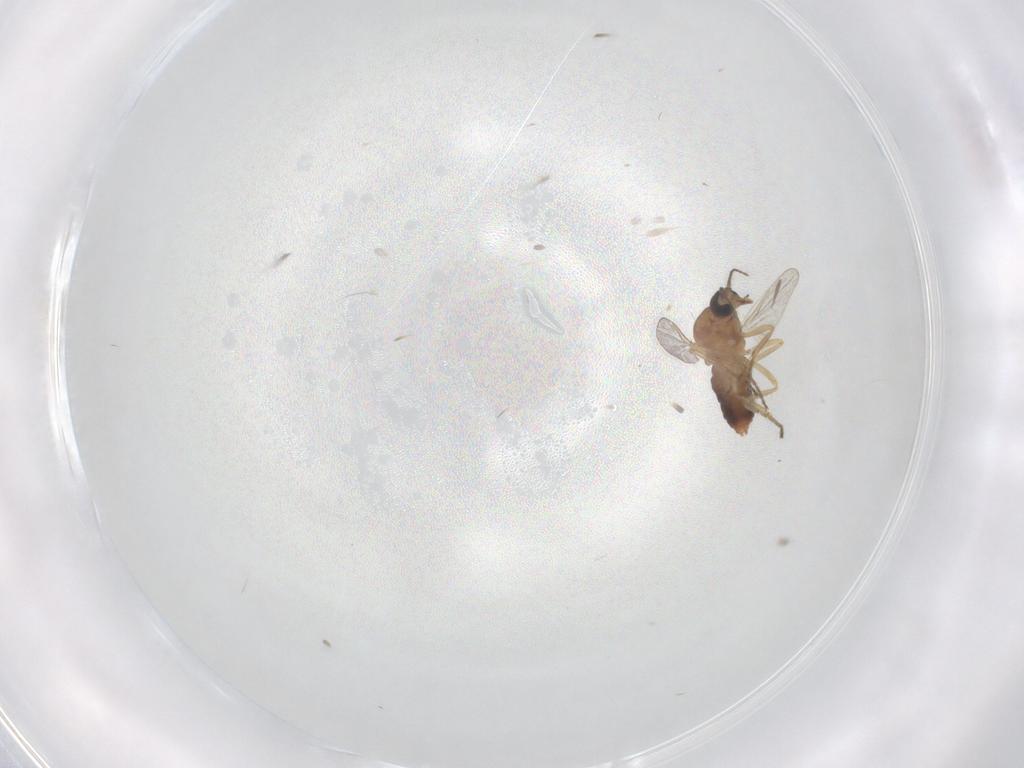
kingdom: Animalia
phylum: Arthropoda
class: Insecta
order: Diptera
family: Ceratopogonidae
